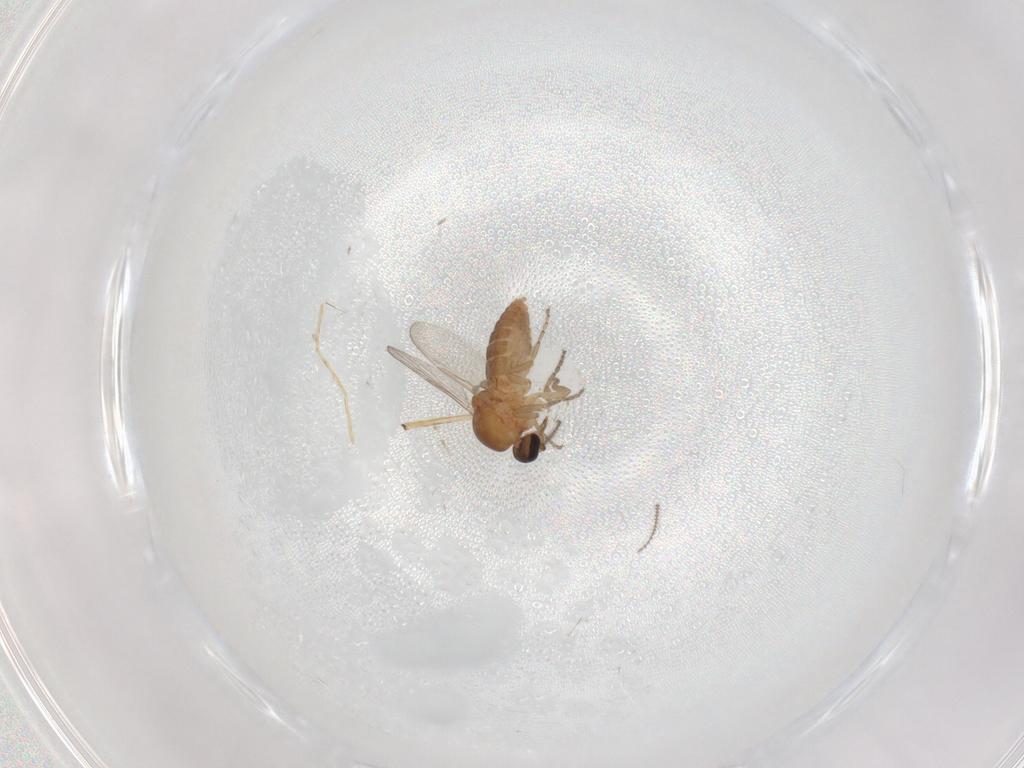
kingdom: Animalia
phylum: Arthropoda
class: Insecta
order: Diptera
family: Ceratopogonidae
